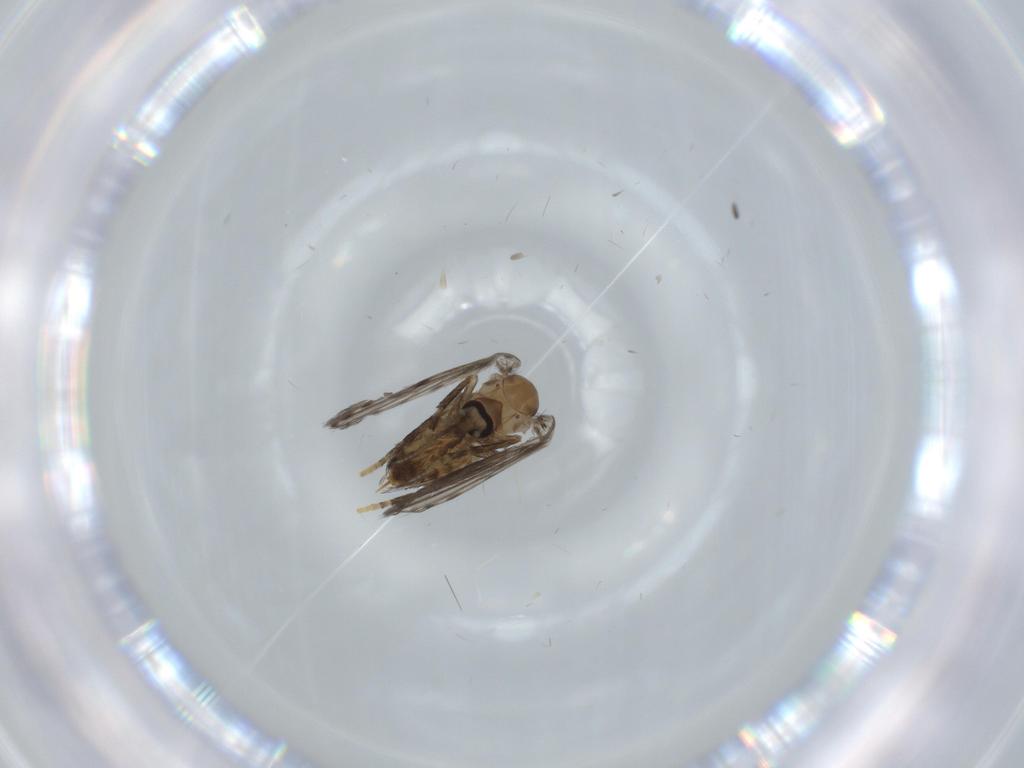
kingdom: Animalia
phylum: Arthropoda
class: Insecta
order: Diptera
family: Psychodidae
